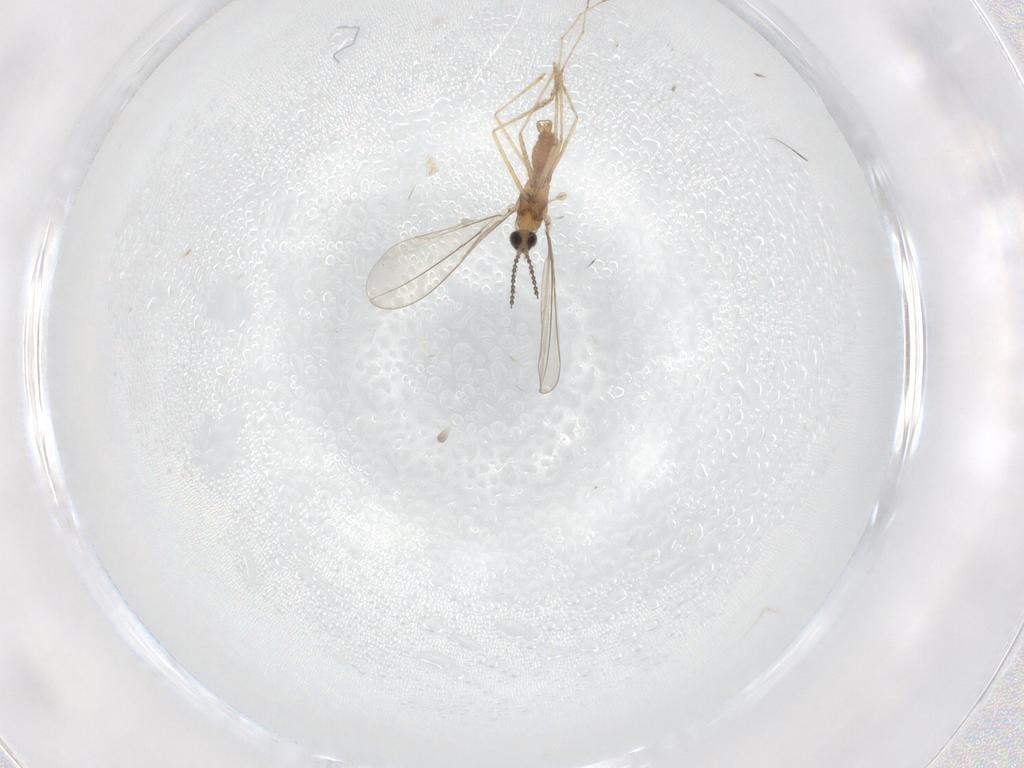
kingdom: Animalia
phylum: Arthropoda
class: Insecta
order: Diptera
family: Cecidomyiidae
